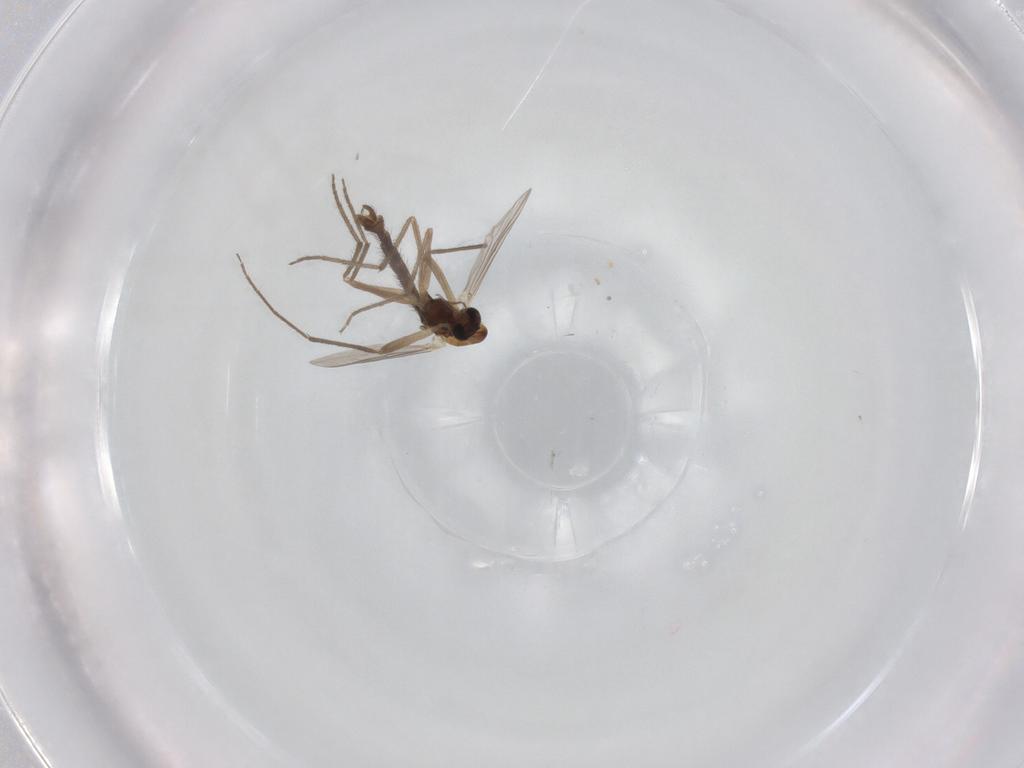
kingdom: Animalia
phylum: Arthropoda
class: Insecta
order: Diptera
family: Chironomidae
